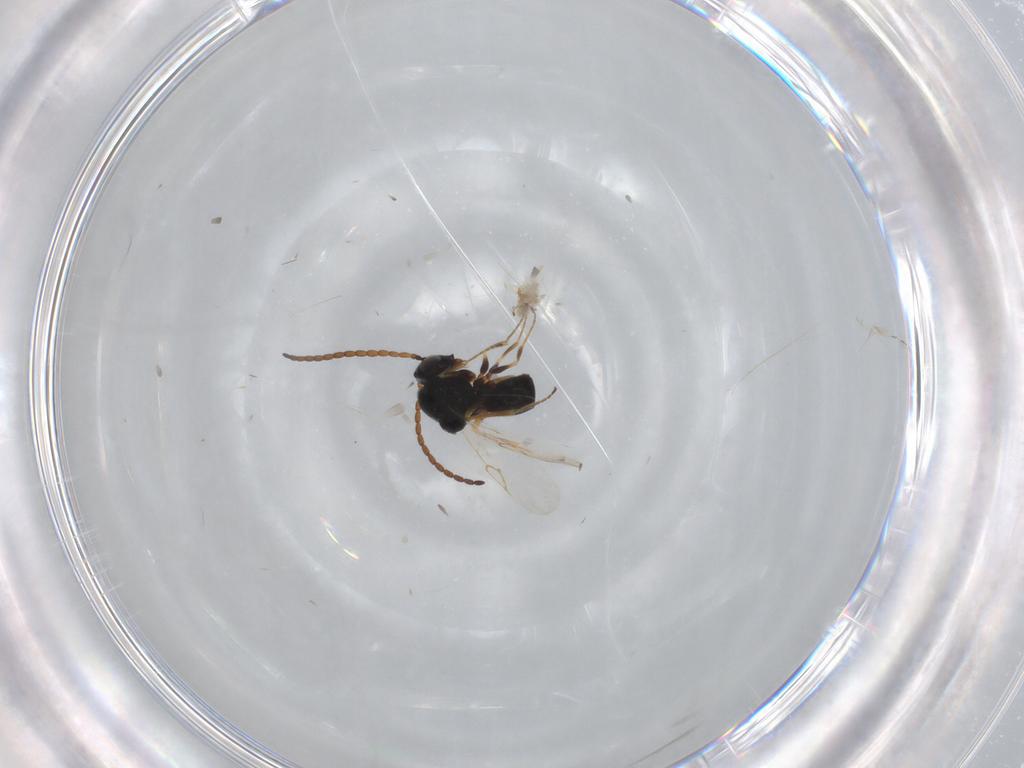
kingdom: Animalia
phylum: Arthropoda
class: Insecta
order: Hymenoptera
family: Figitidae
